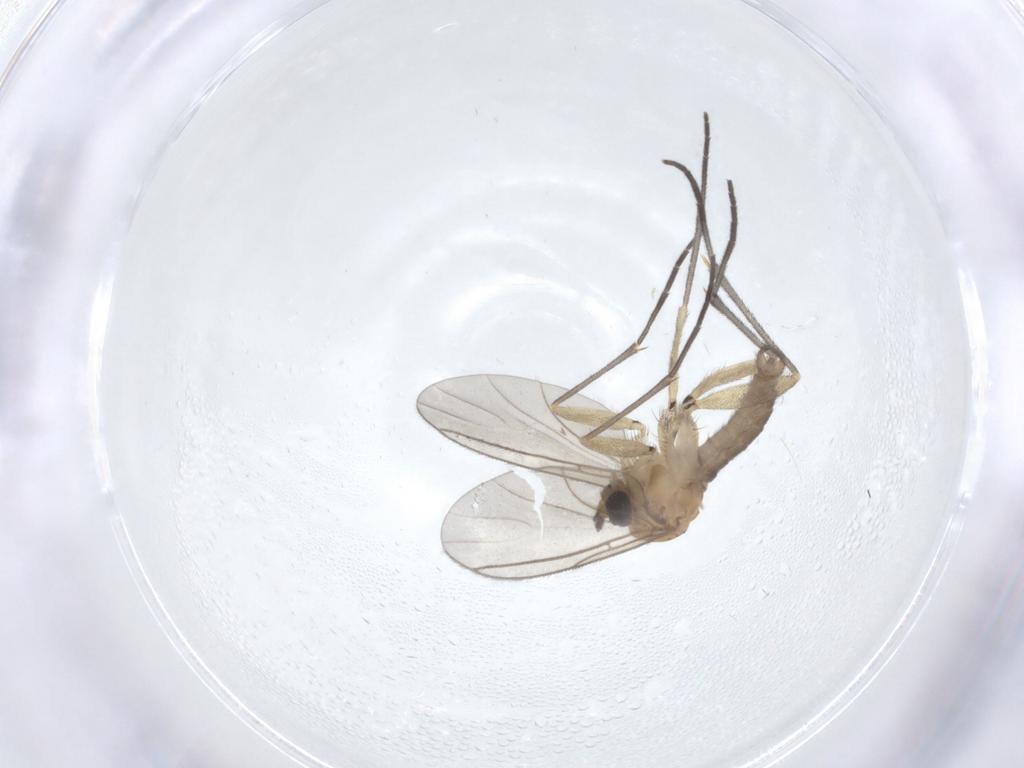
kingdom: Animalia
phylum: Arthropoda
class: Insecta
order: Diptera
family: Sciaridae
